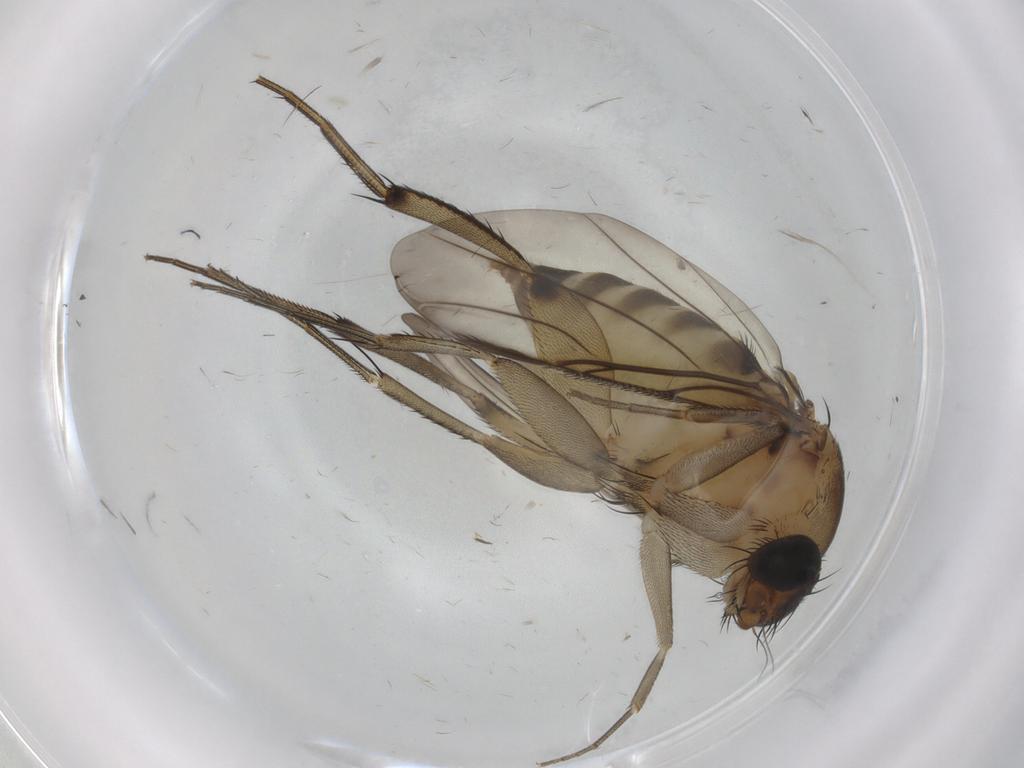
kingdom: Animalia
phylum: Arthropoda
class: Insecta
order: Diptera
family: Phoridae
